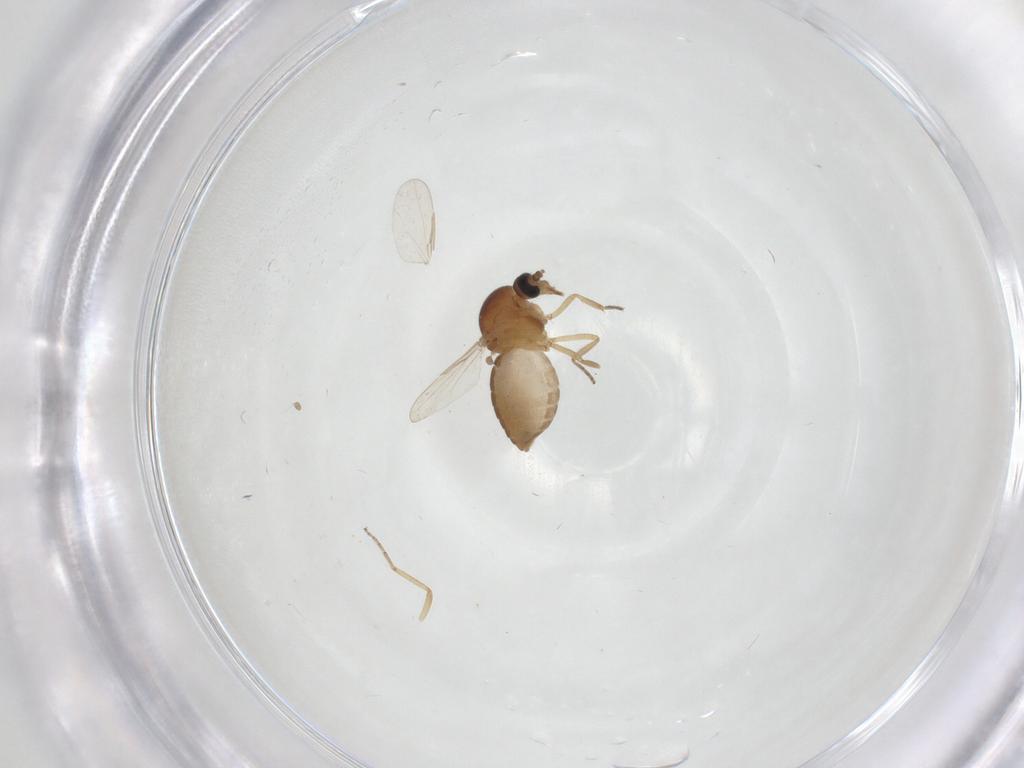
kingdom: Animalia
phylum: Arthropoda
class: Insecta
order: Diptera
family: Ceratopogonidae
